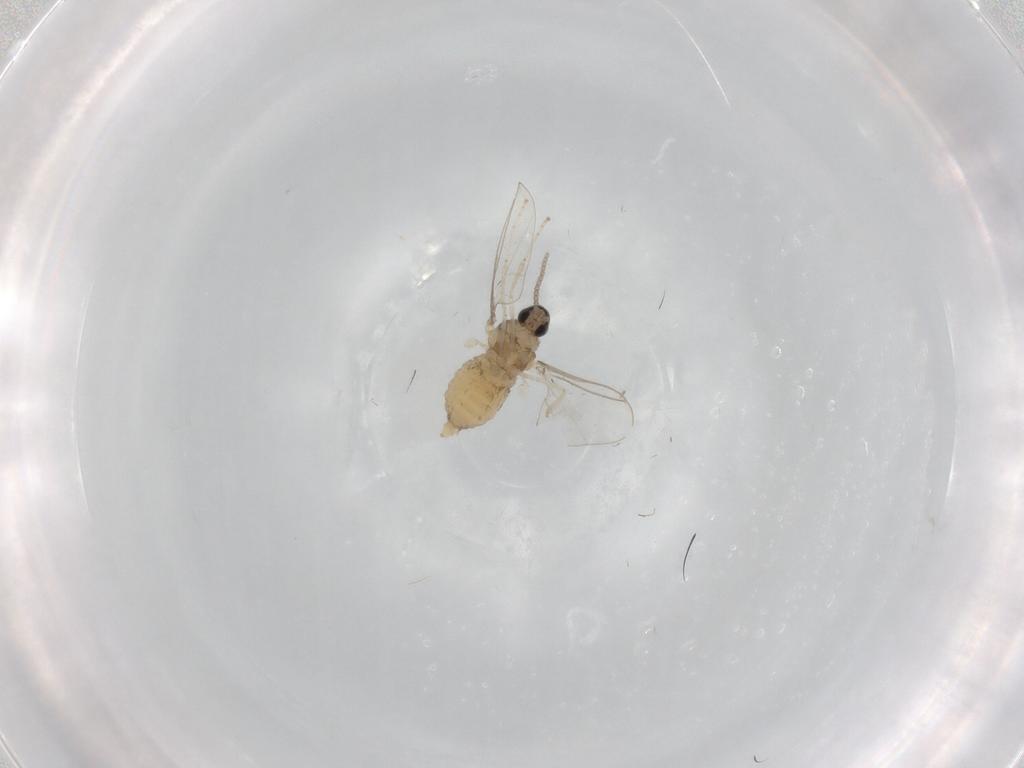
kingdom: Animalia
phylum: Arthropoda
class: Insecta
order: Diptera
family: Cecidomyiidae
